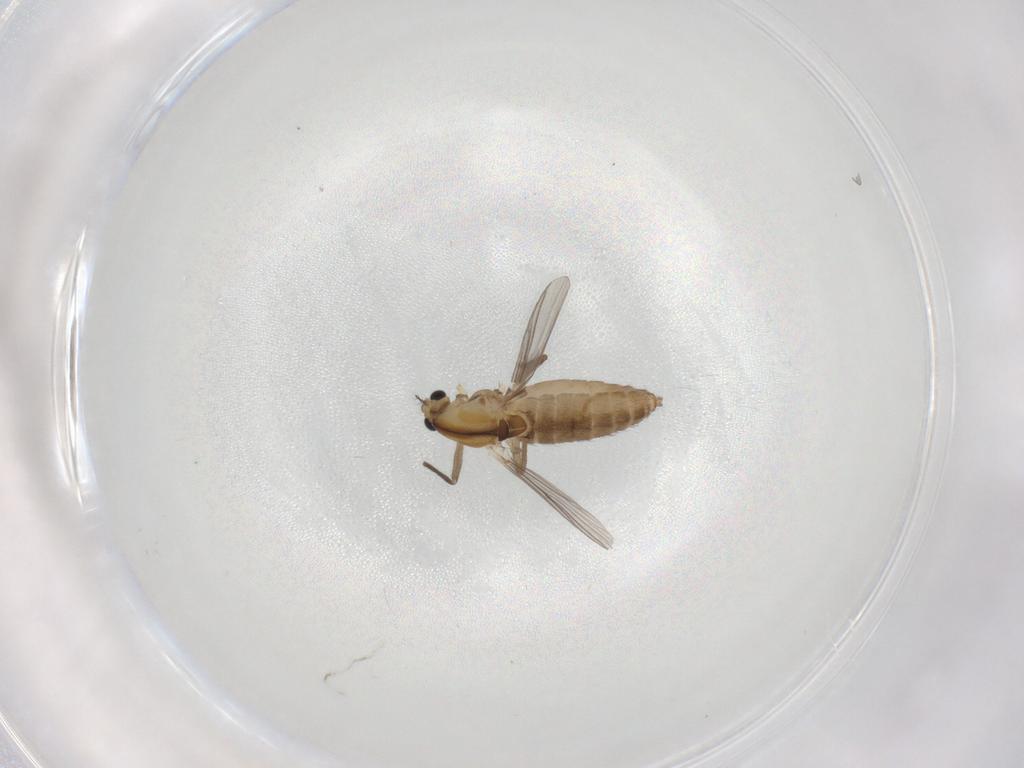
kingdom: Animalia
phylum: Arthropoda
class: Insecta
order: Diptera
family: Chironomidae
